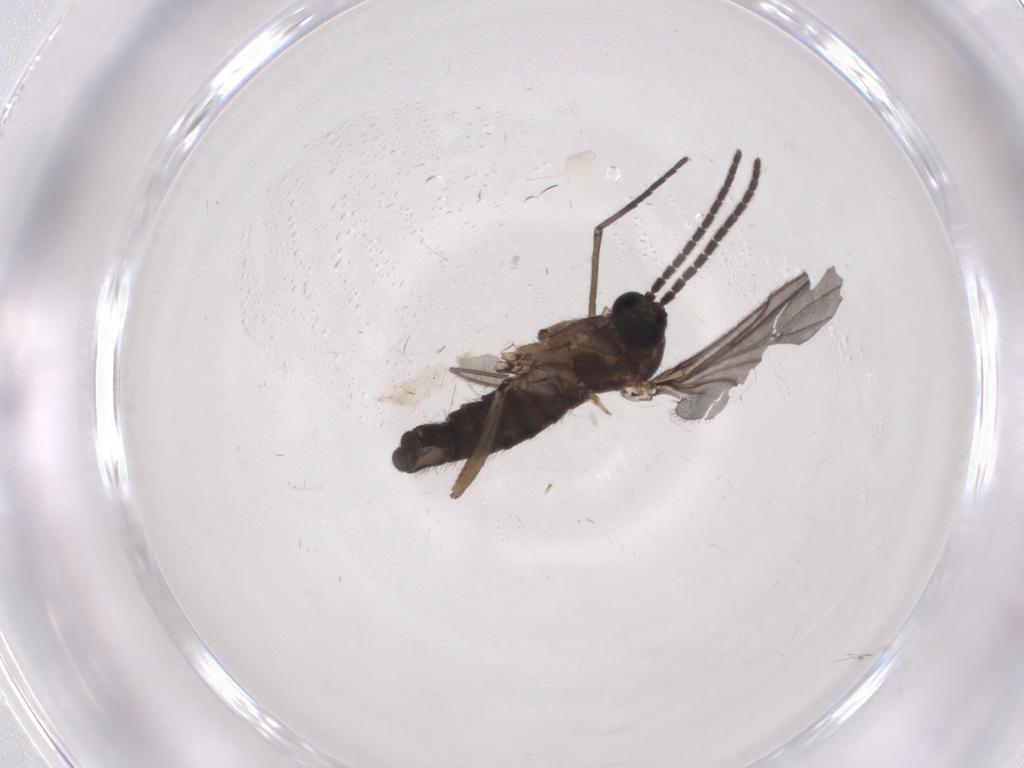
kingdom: Animalia
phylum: Arthropoda
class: Insecta
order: Diptera
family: Sciaridae
